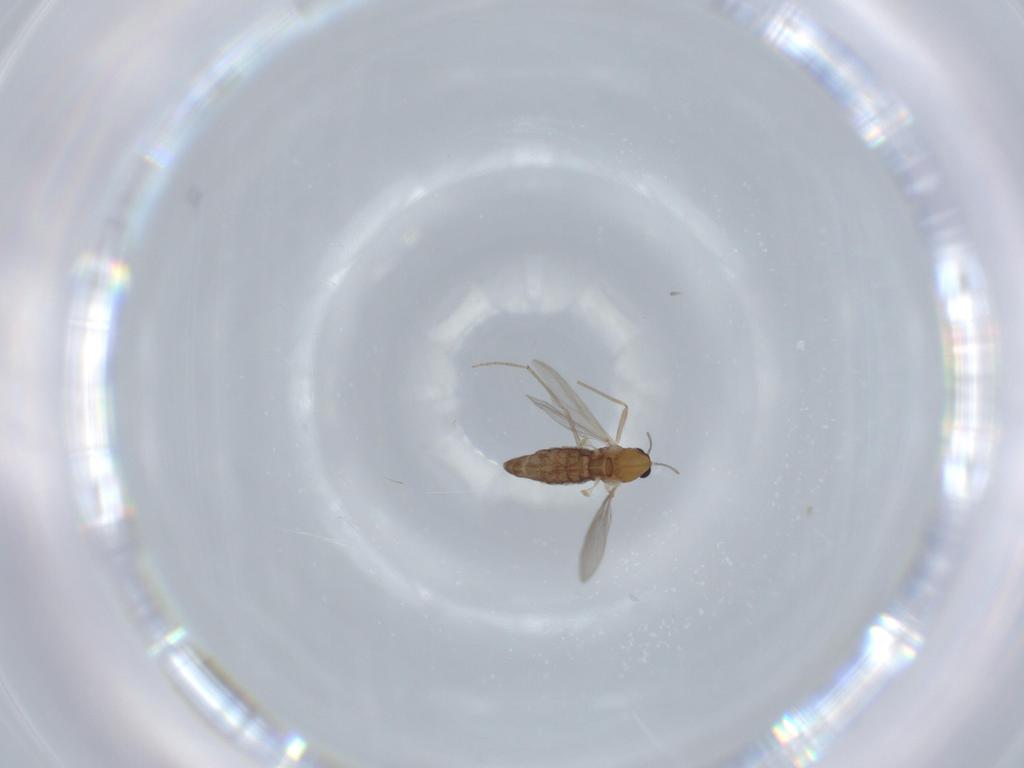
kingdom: Animalia
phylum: Arthropoda
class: Insecta
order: Diptera
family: Chironomidae
